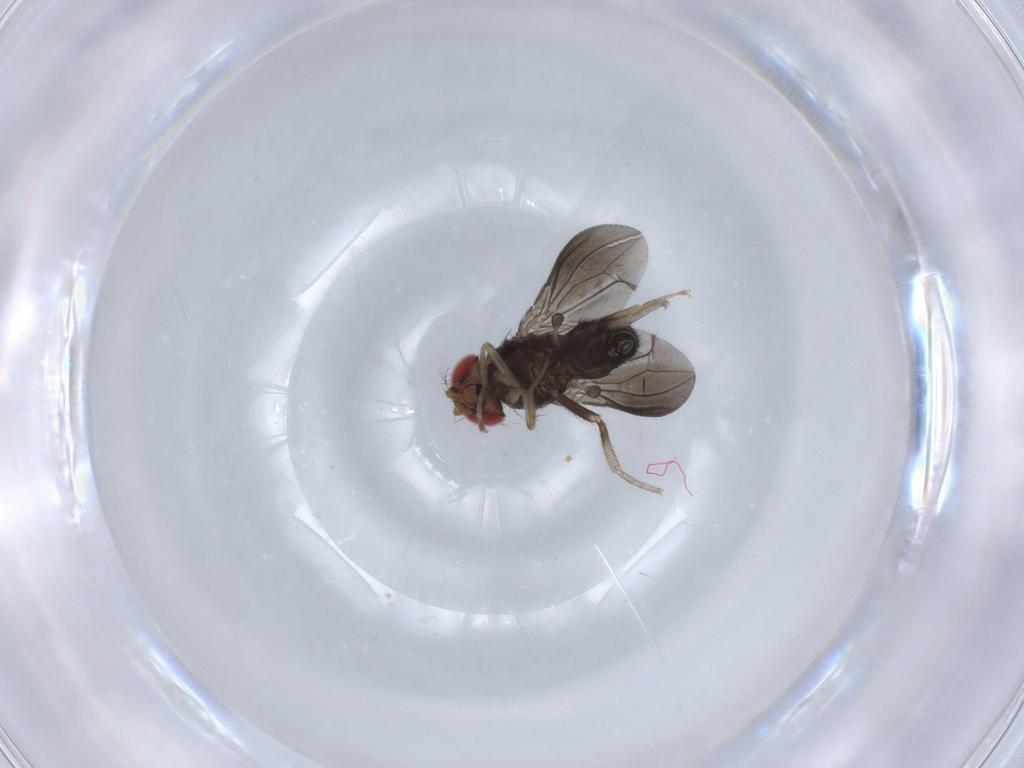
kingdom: Animalia
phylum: Arthropoda
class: Insecta
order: Diptera
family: Drosophilidae
